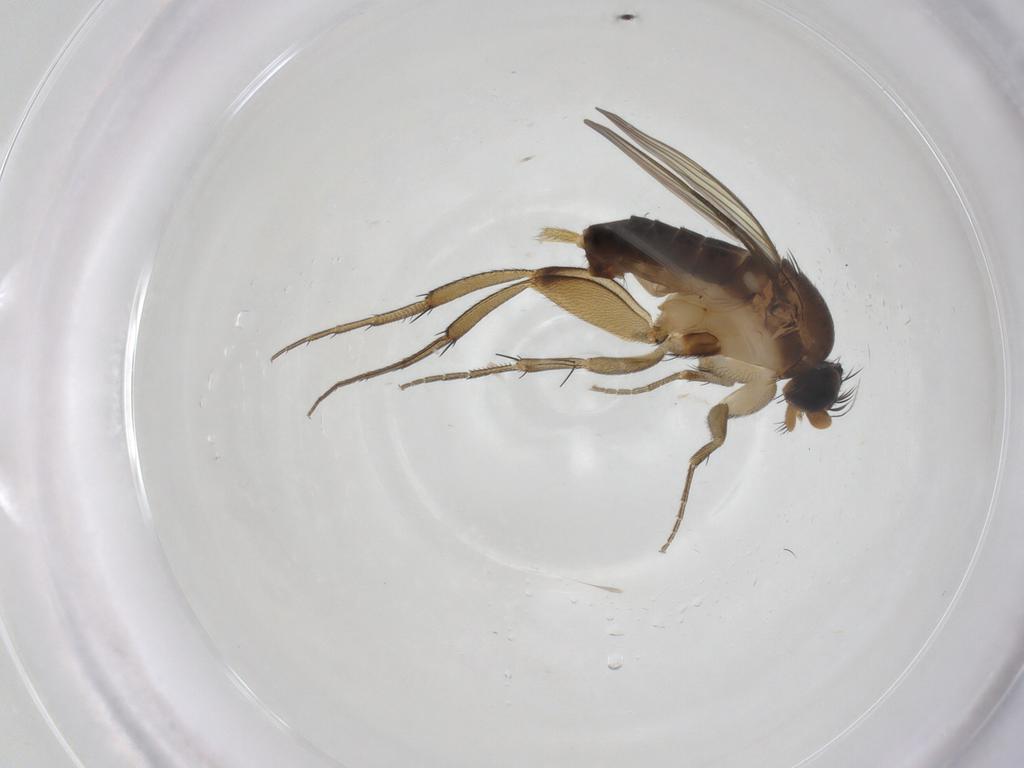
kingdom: Animalia
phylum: Arthropoda
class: Insecta
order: Diptera
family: Phoridae
